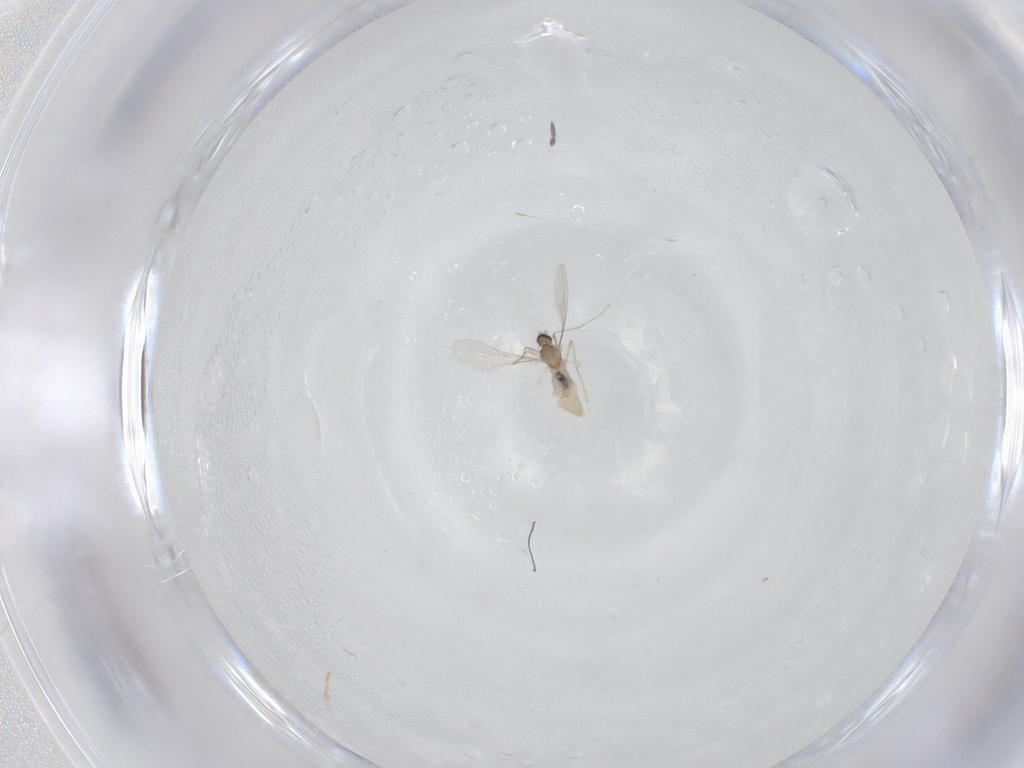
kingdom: Animalia
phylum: Arthropoda
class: Insecta
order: Diptera
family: Cecidomyiidae
